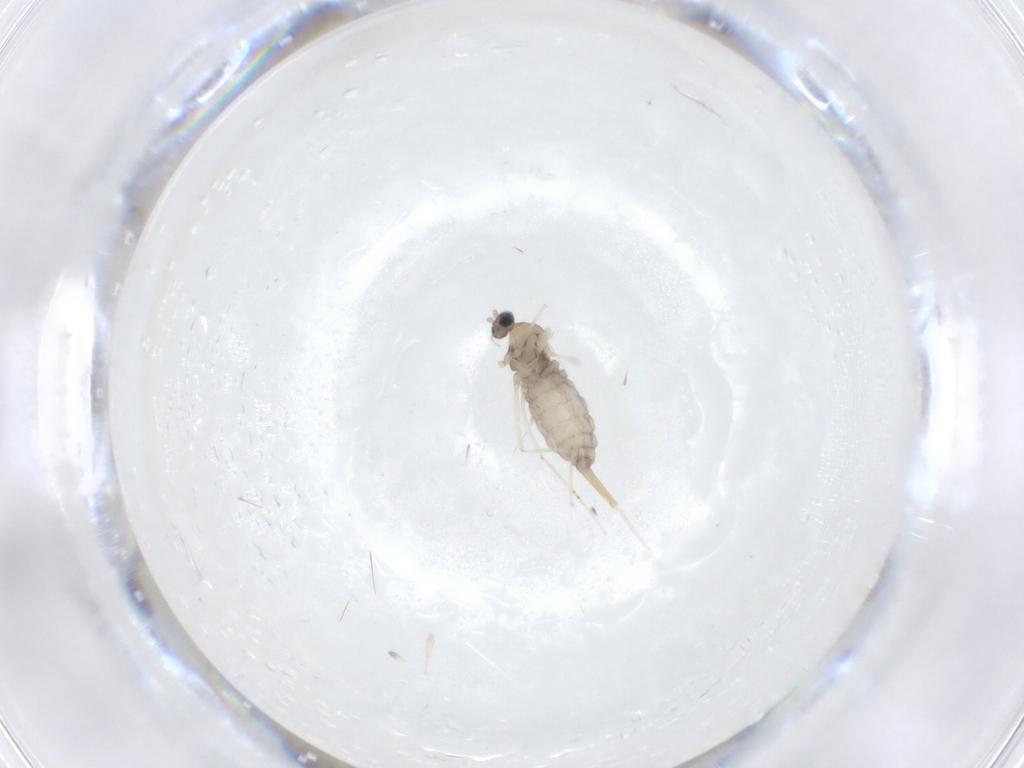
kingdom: Animalia
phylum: Arthropoda
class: Insecta
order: Diptera
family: Cecidomyiidae
